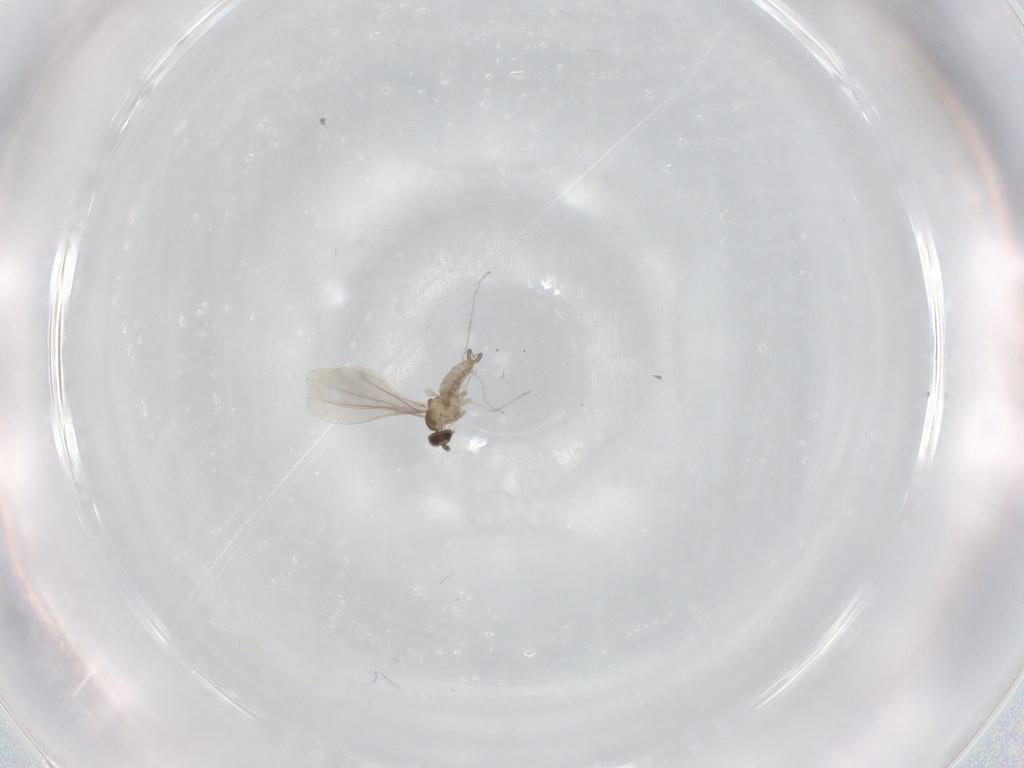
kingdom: Animalia
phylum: Arthropoda
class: Insecta
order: Diptera
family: Cecidomyiidae
